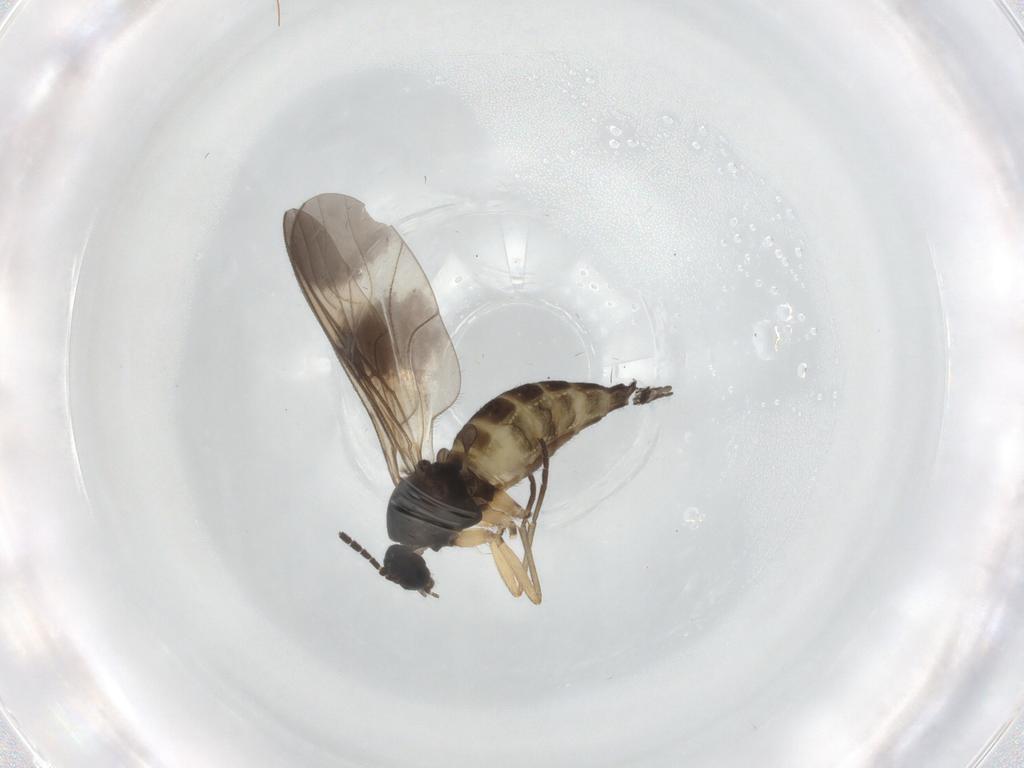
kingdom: Animalia
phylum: Arthropoda
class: Insecta
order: Diptera
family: Sciaridae
